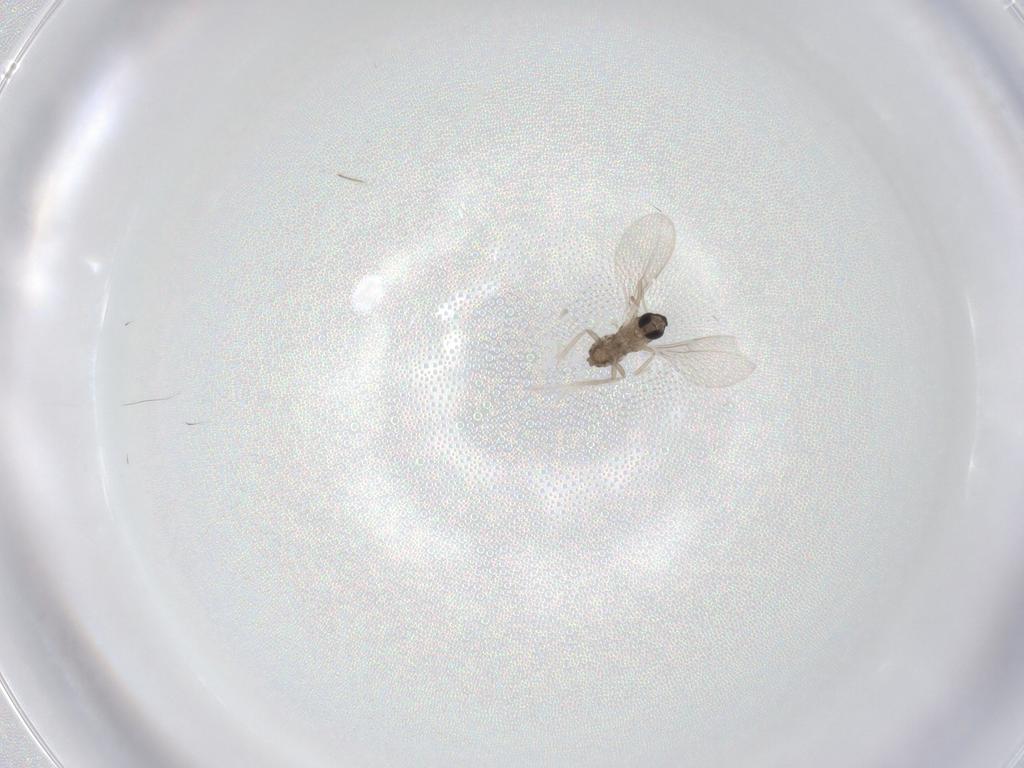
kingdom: Animalia
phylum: Arthropoda
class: Insecta
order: Diptera
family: Cecidomyiidae
